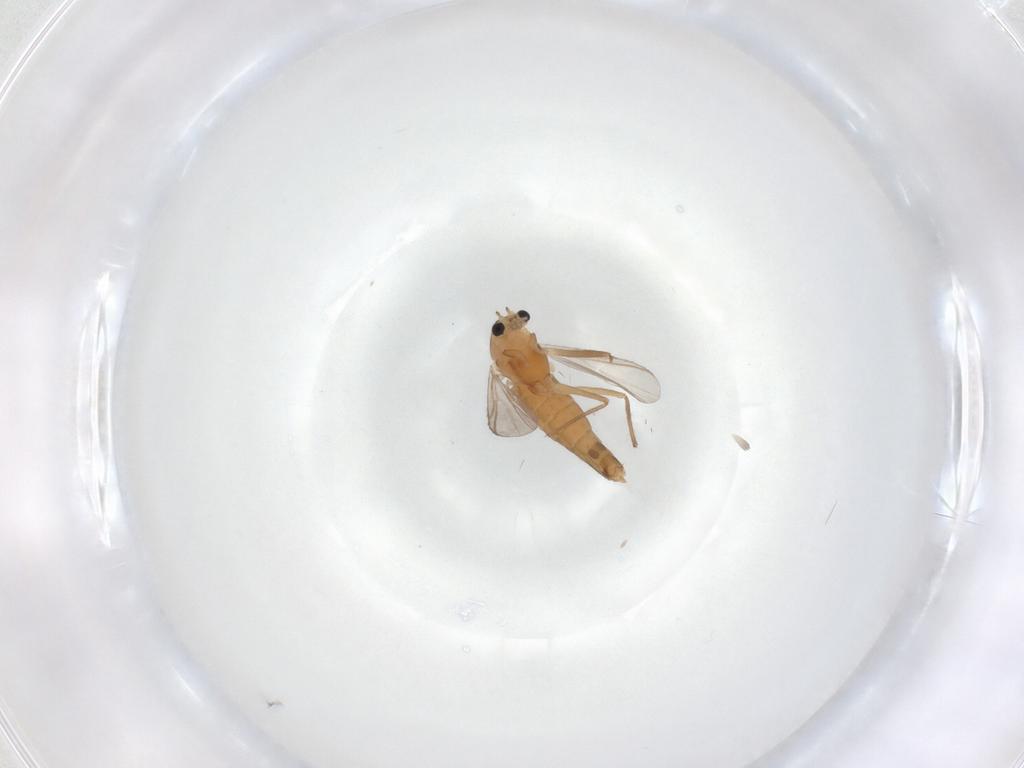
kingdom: Animalia
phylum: Arthropoda
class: Insecta
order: Diptera
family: Chironomidae
